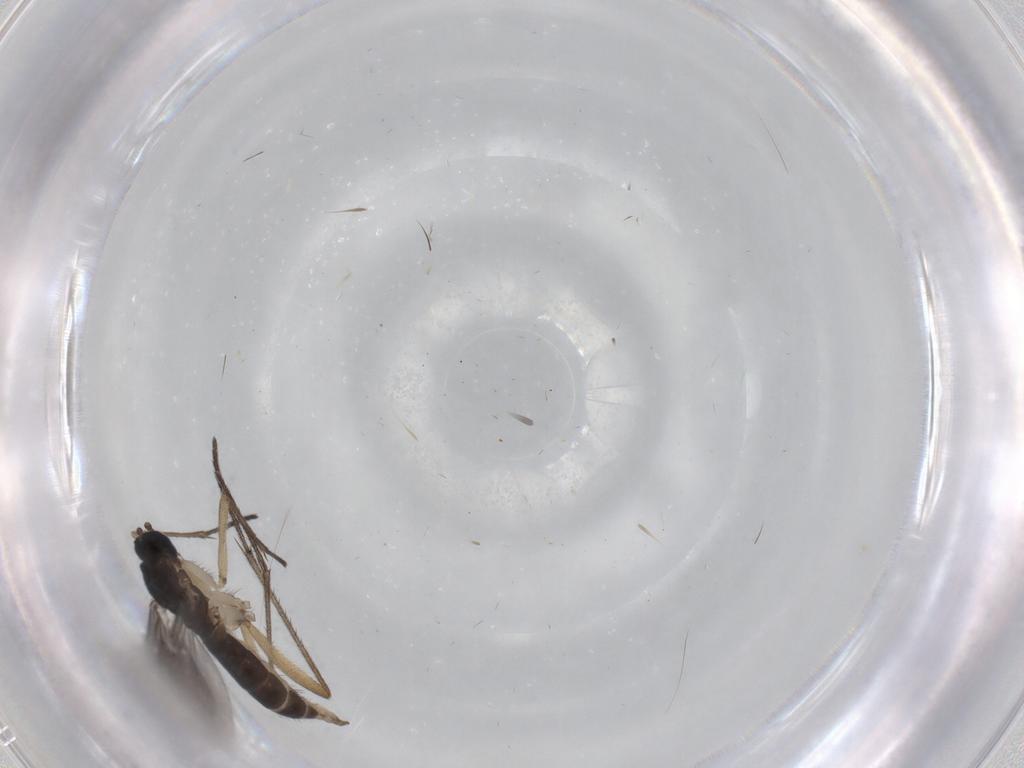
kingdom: Animalia
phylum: Arthropoda
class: Insecta
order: Diptera
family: Sciaridae
